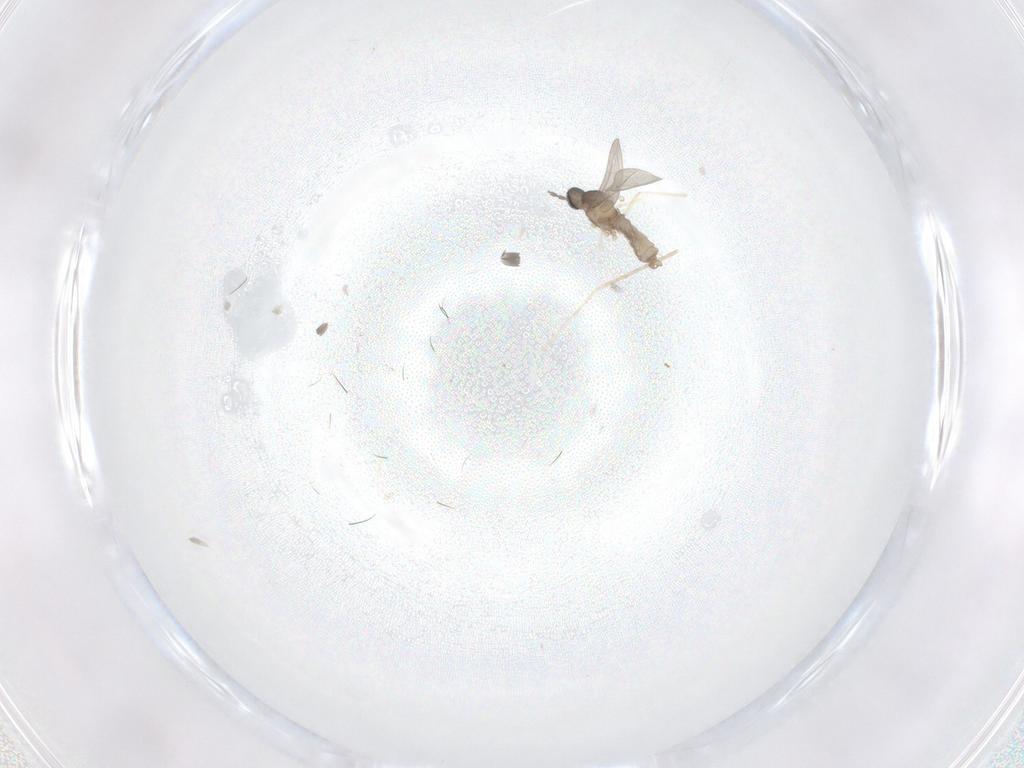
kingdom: Animalia
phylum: Arthropoda
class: Insecta
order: Diptera
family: Cecidomyiidae
